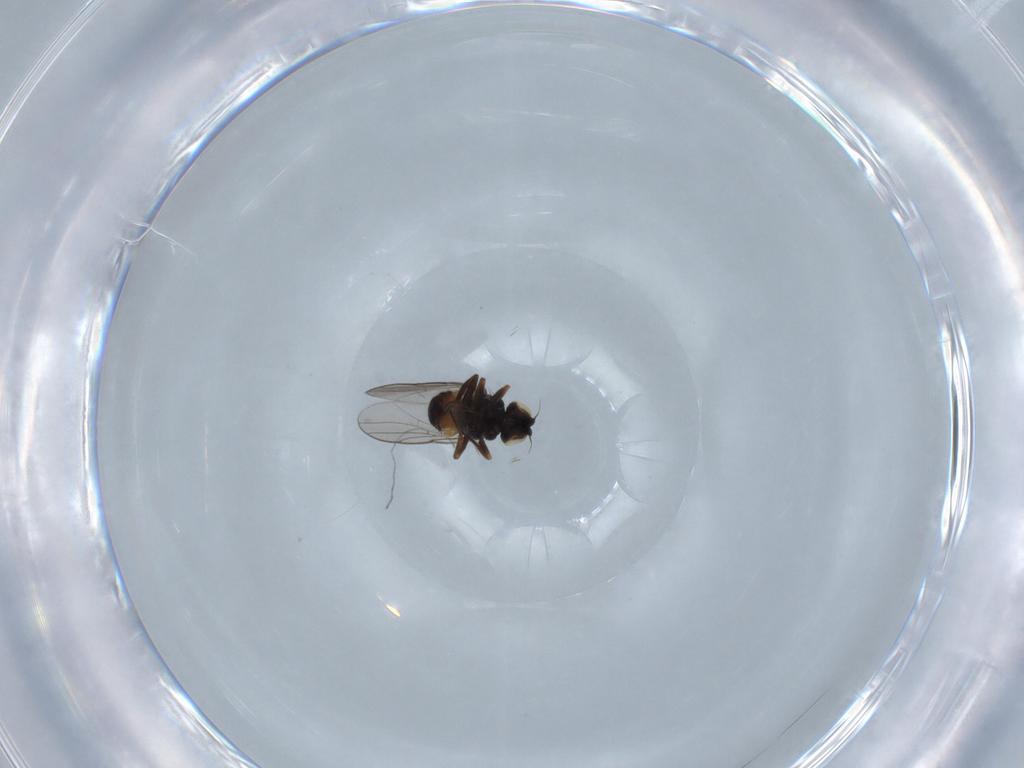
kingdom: Animalia
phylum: Arthropoda
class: Insecta
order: Diptera
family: Chloropidae
